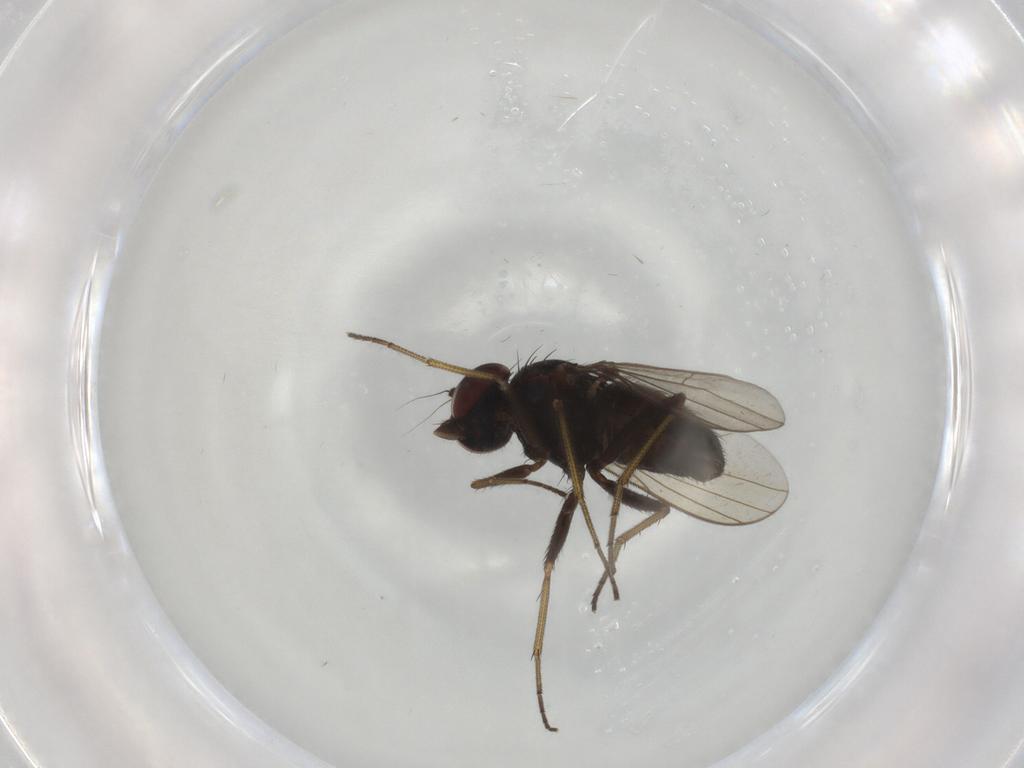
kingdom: Animalia
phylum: Arthropoda
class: Insecta
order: Diptera
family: Dolichopodidae
